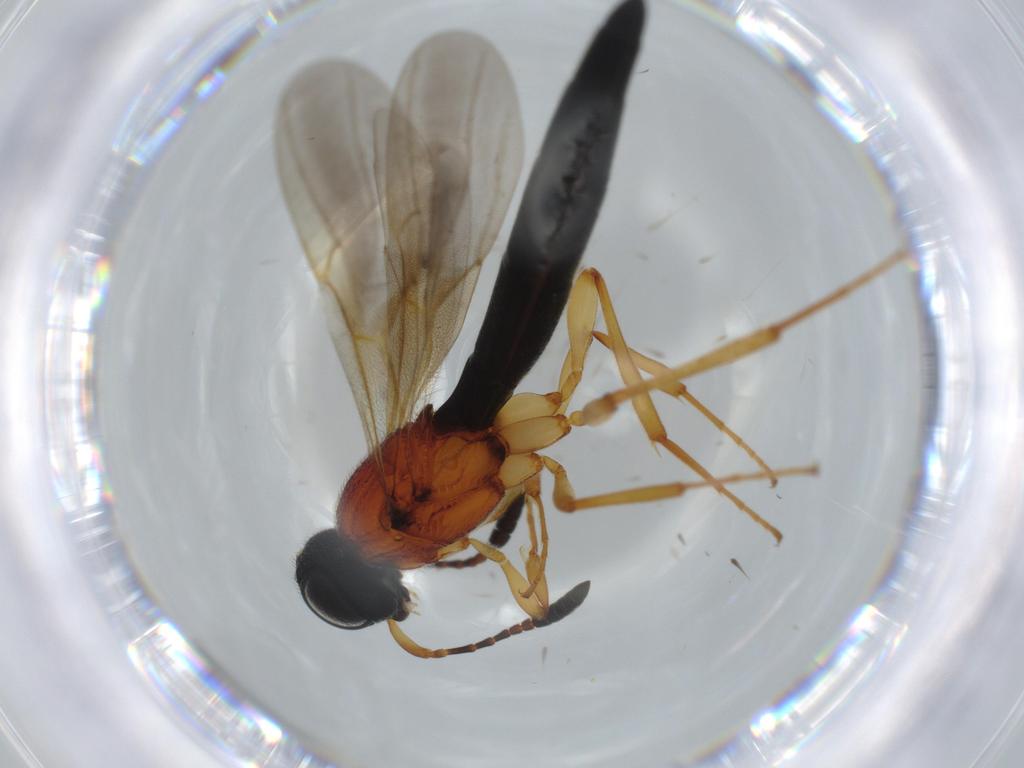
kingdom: Animalia
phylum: Arthropoda
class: Insecta
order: Hymenoptera
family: Scelionidae
